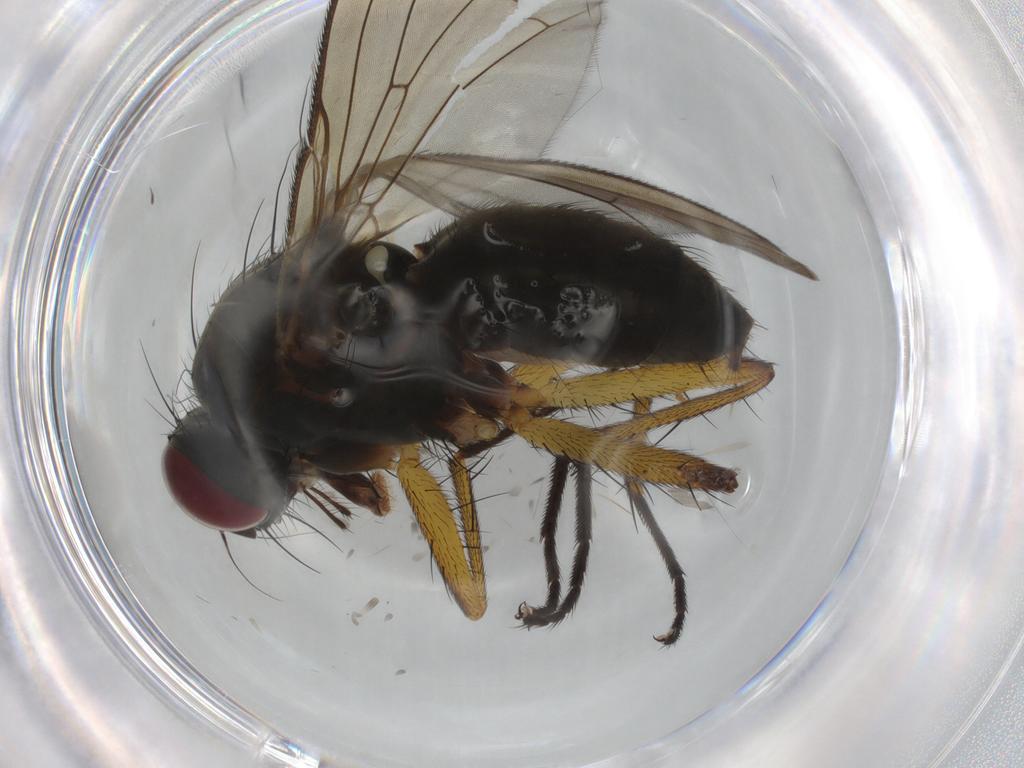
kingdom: Animalia
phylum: Arthropoda
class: Insecta
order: Diptera
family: Muscidae
